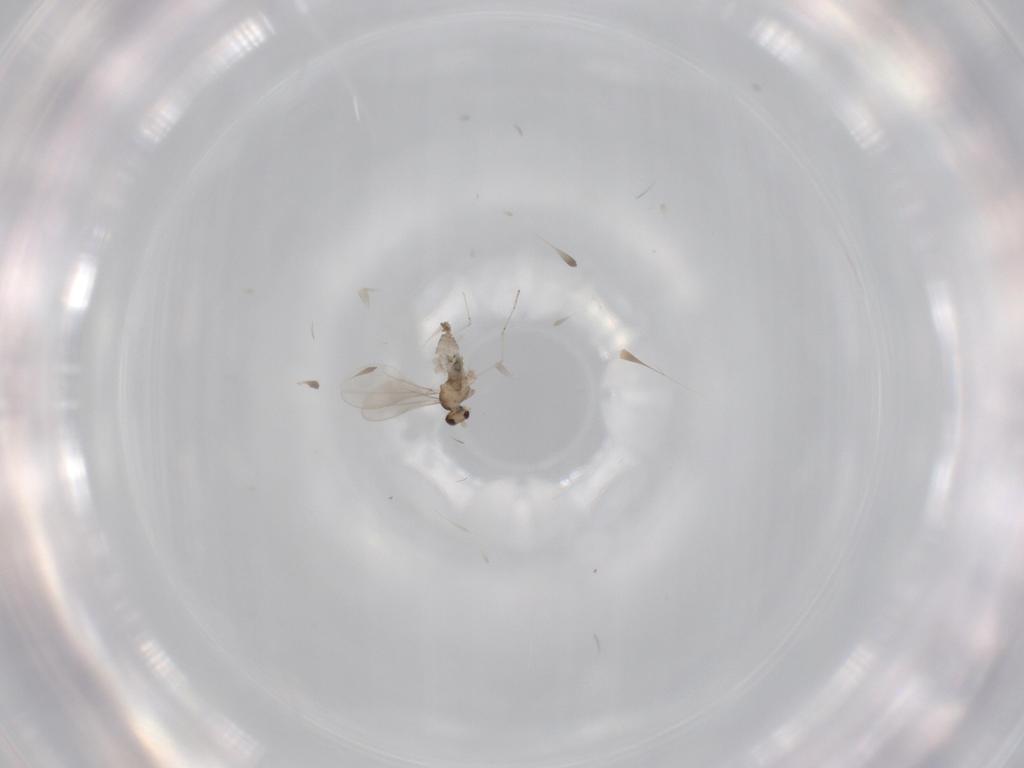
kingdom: Animalia
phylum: Arthropoda
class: Insecta
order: Diptera
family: Cecidomyiidae
